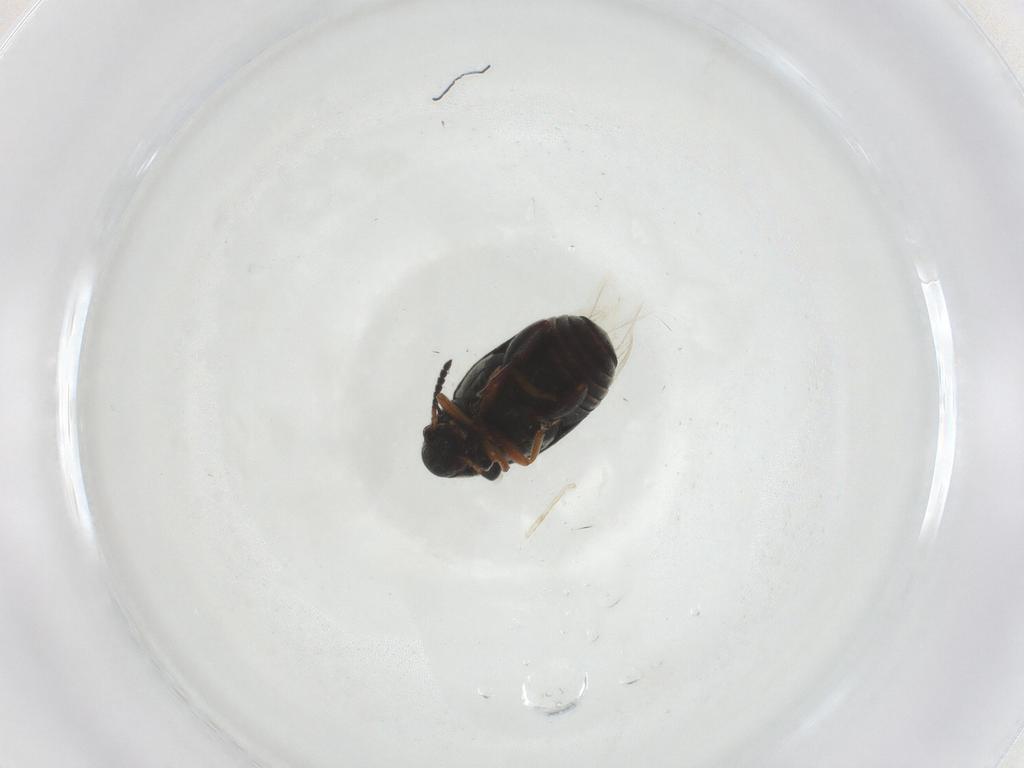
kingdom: Animalia
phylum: Arthropoda
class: Insecta
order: Coleoptera
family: Chrysomelidae
